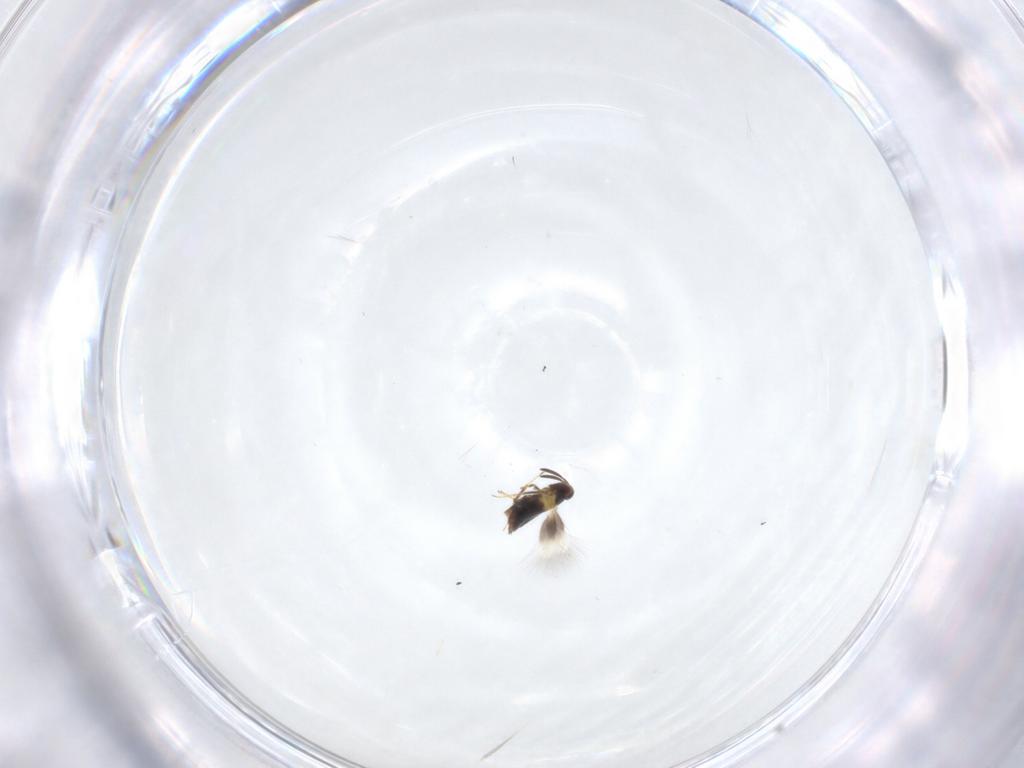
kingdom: Animalia
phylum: Arthropoda
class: Insecta
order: Hymenoptera
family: Signiphoridae
